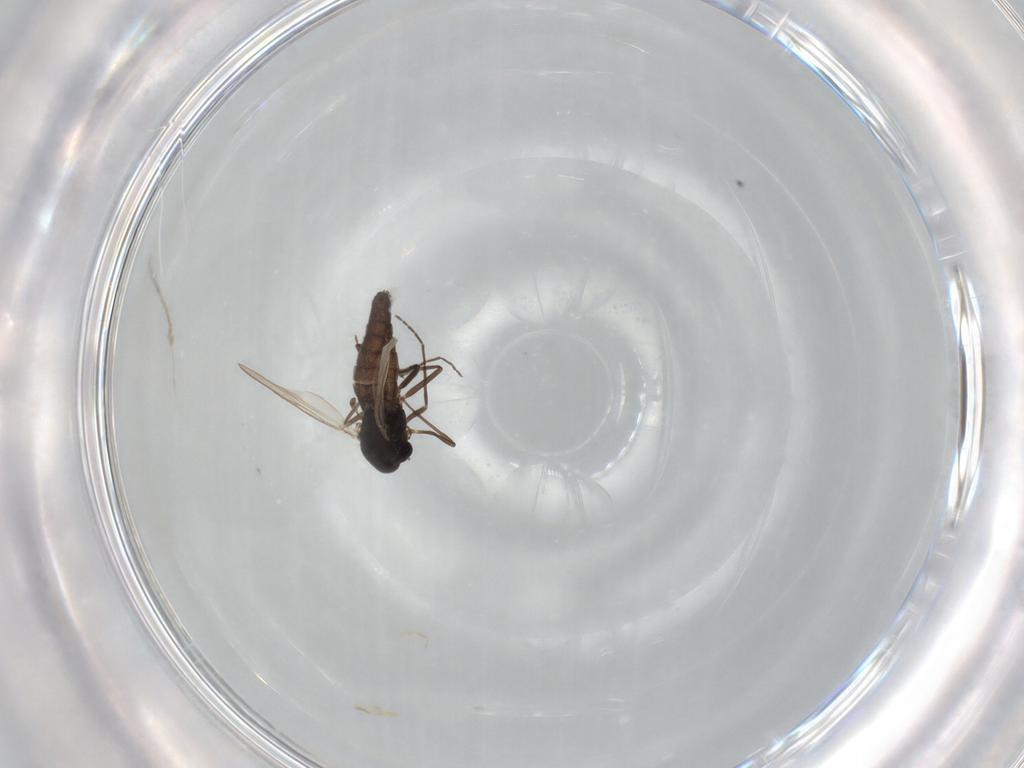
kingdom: Animalia
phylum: Arthropoda
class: Insecta
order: Diptera
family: Chironomidae
